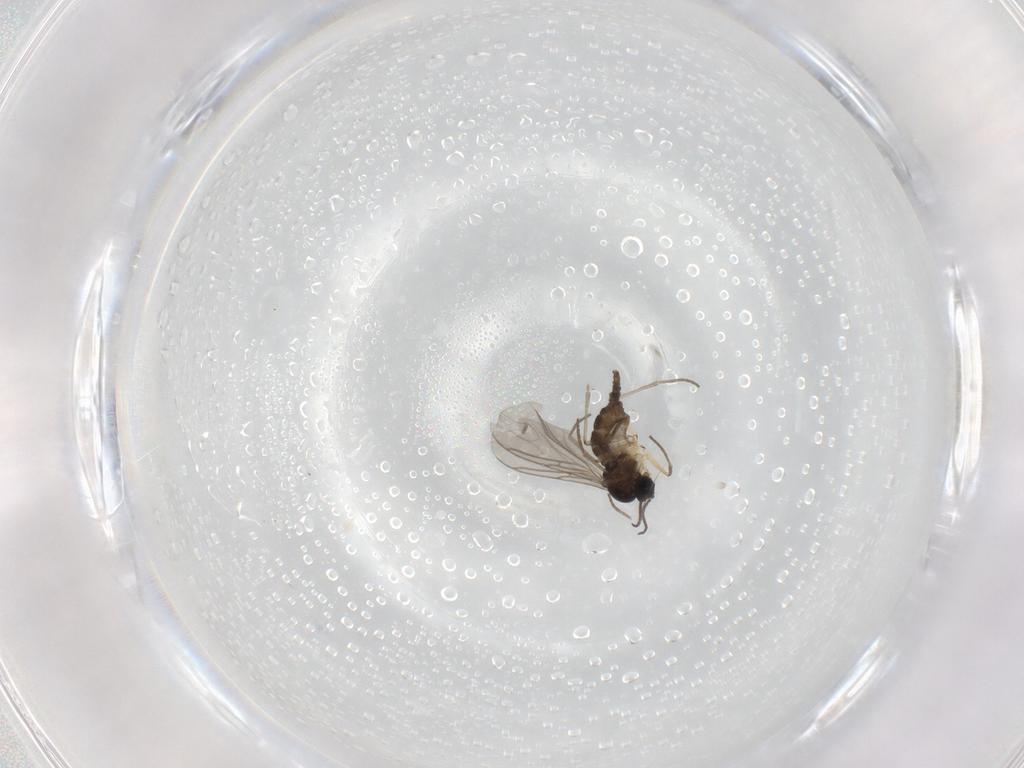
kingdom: Animalia
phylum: Arthropoda
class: Insecta
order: Diptera
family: Sciaridae
